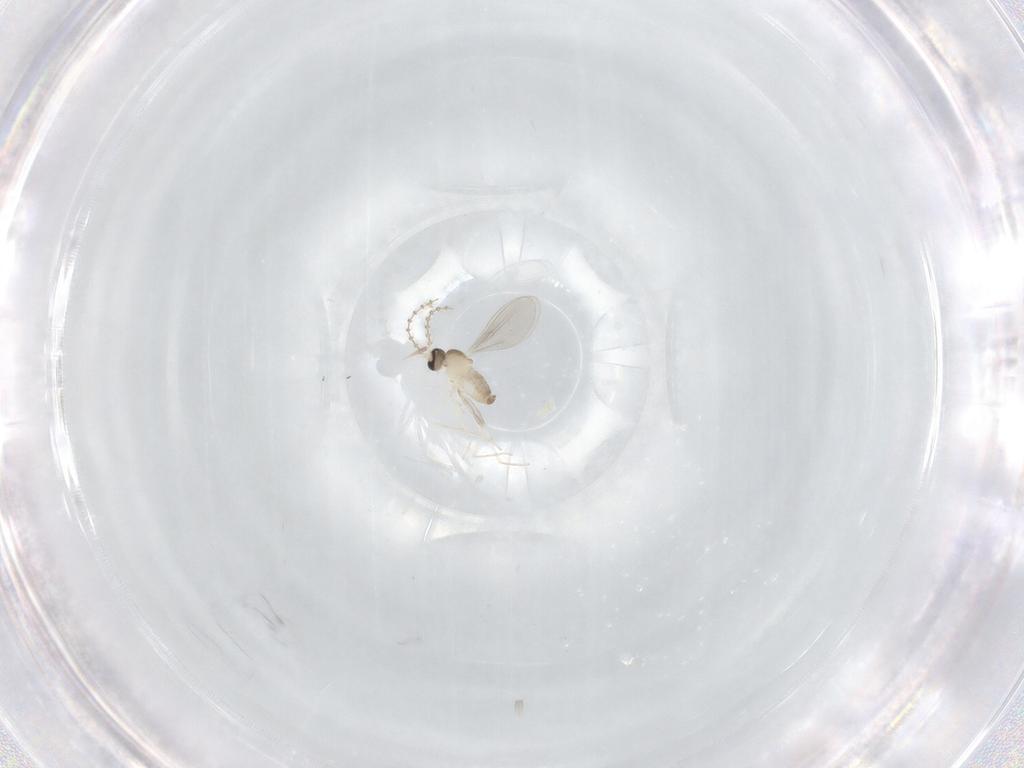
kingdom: Animalia
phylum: Arthropoda
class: Insecta
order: Diptera
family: Cecidomyiidae
